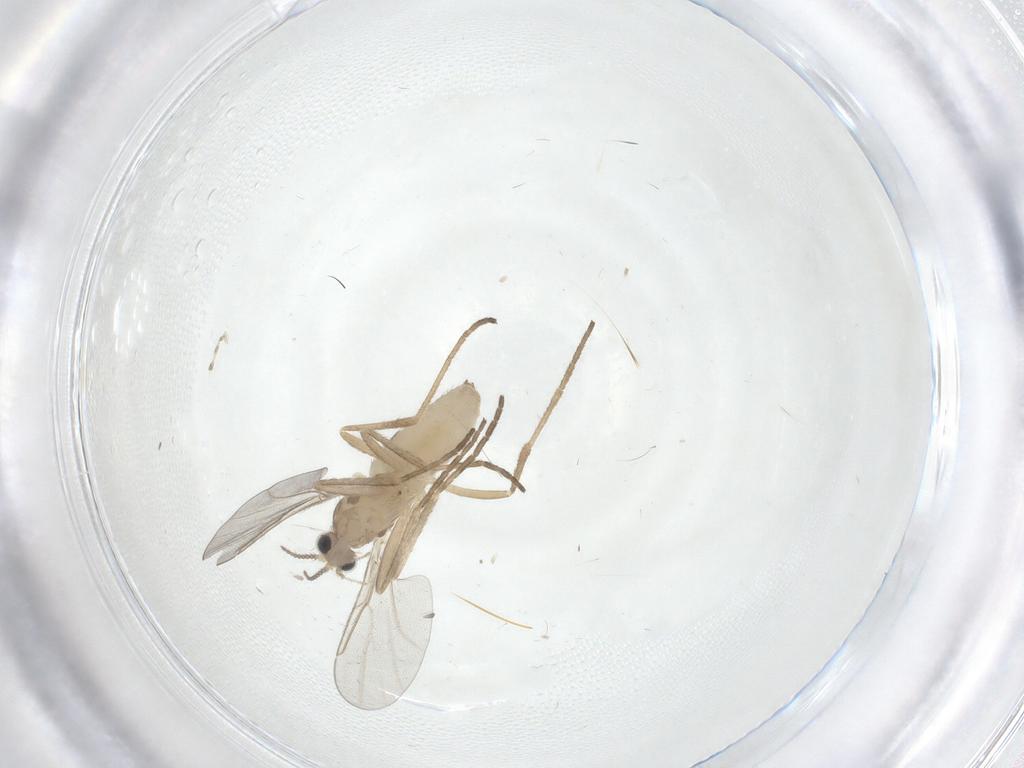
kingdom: Animalia
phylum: Arthropoda
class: Insecta
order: Diptera
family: Cecidomyiidae
